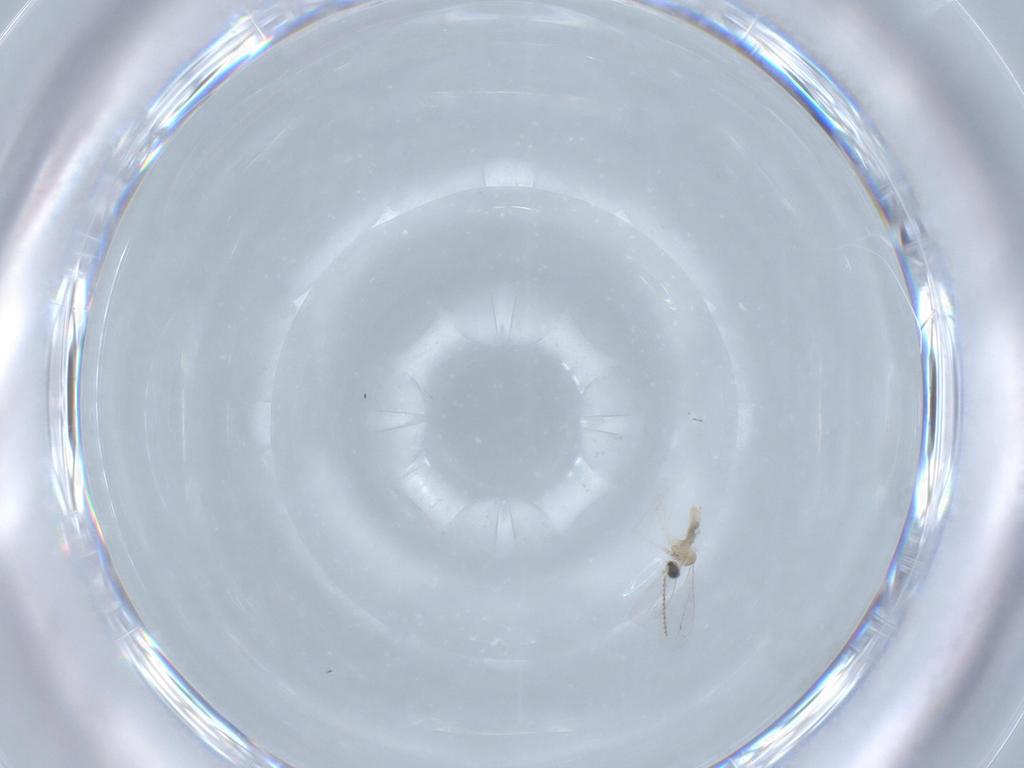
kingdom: Animalia
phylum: Arthropoda
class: Insecta
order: Diptera
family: Cecidomyiidae
